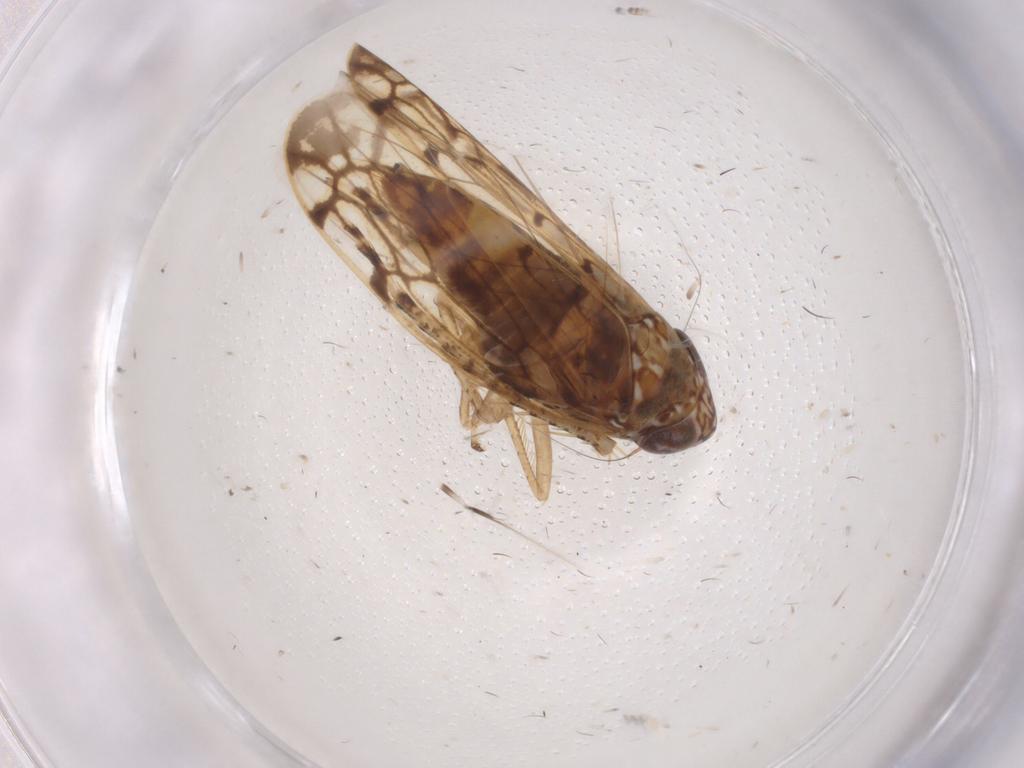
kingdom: Animalia
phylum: Arthropoda
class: Insecta
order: Hemiptera
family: Cicadellidae
